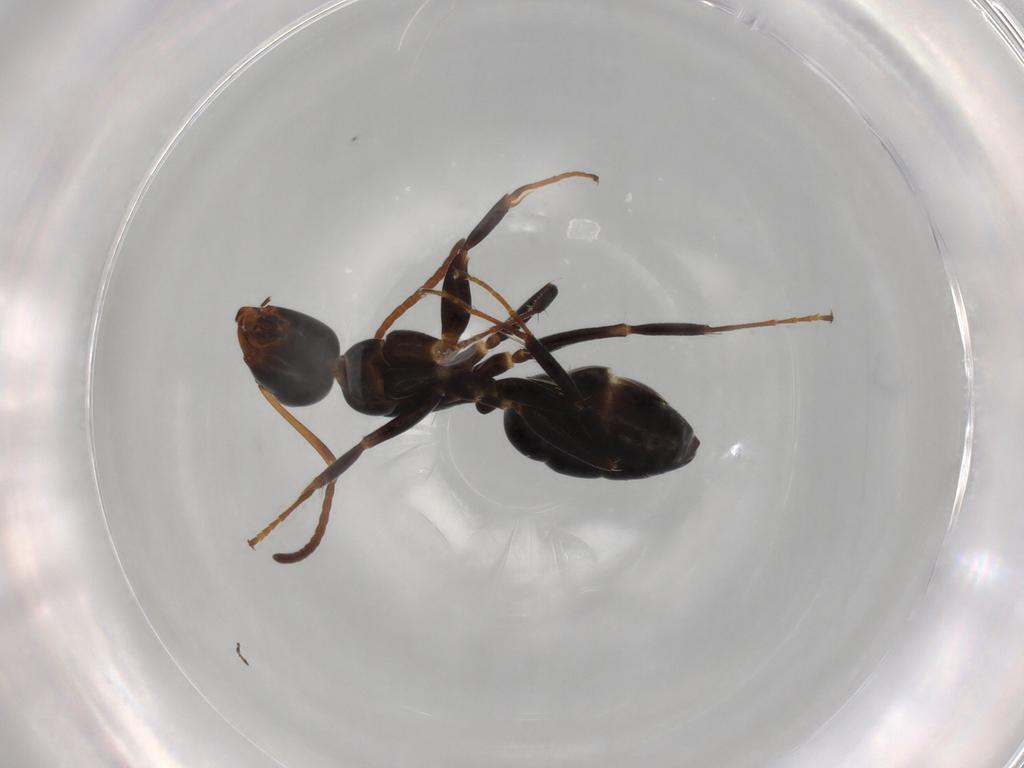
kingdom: Animalia
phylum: Arthropoda
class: Insecta
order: Hymenoptera
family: Formicidae
